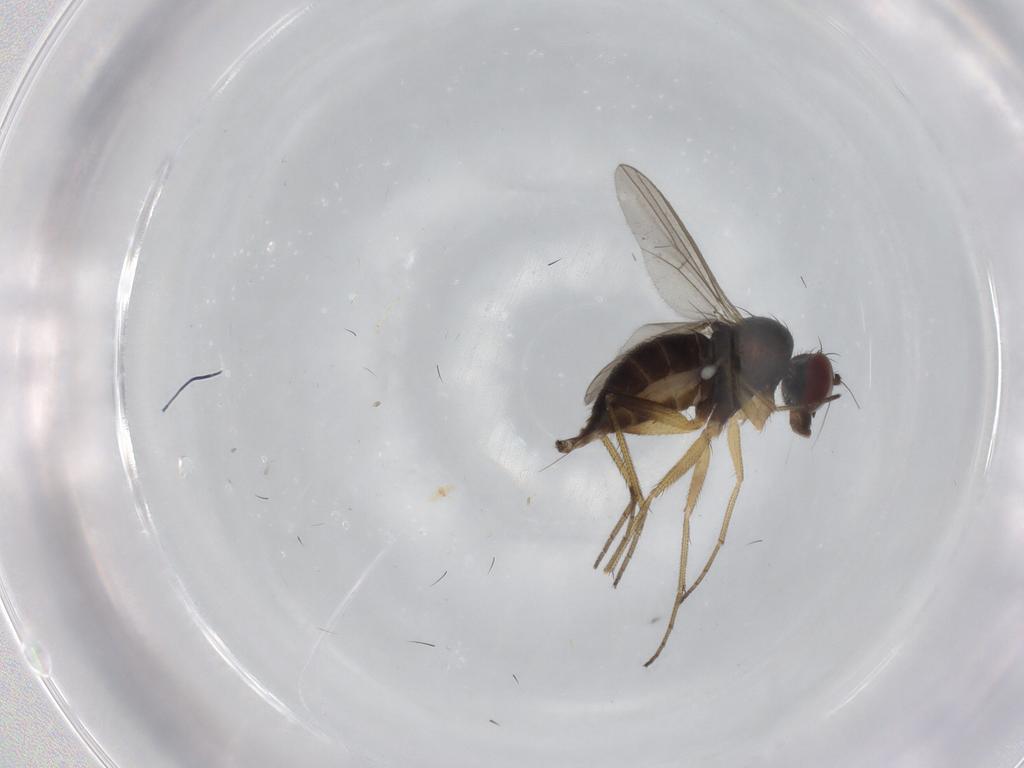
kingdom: Animalia
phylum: Arthropoda
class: Insecta
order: Diptera
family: Dolichopodidae
